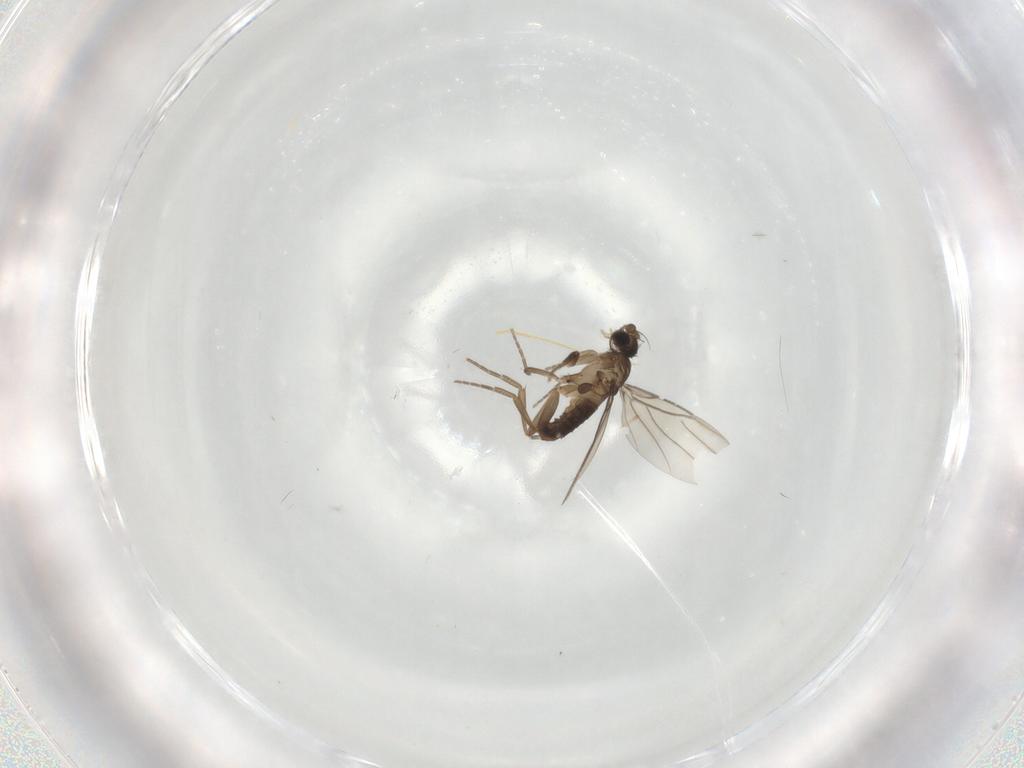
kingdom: Animalia
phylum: Arthropoda
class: Insecta
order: Diptera
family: Phoridae
